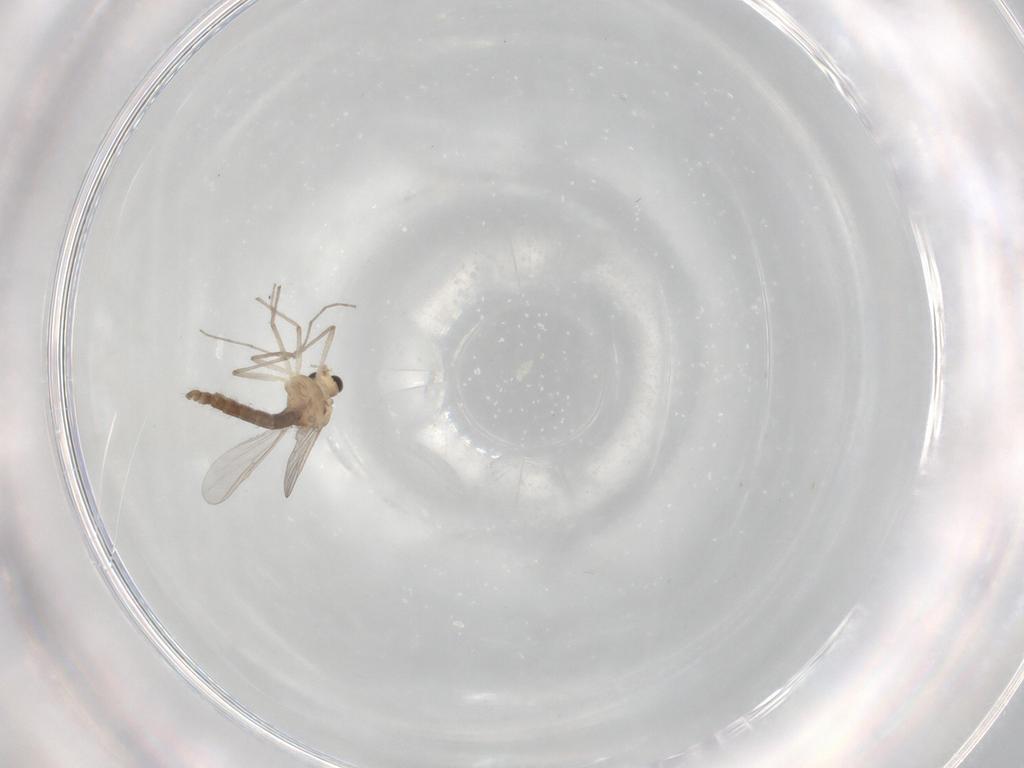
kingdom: Animalia
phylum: Arthropoda
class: Insecta
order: Diptera
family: Chironomidae
